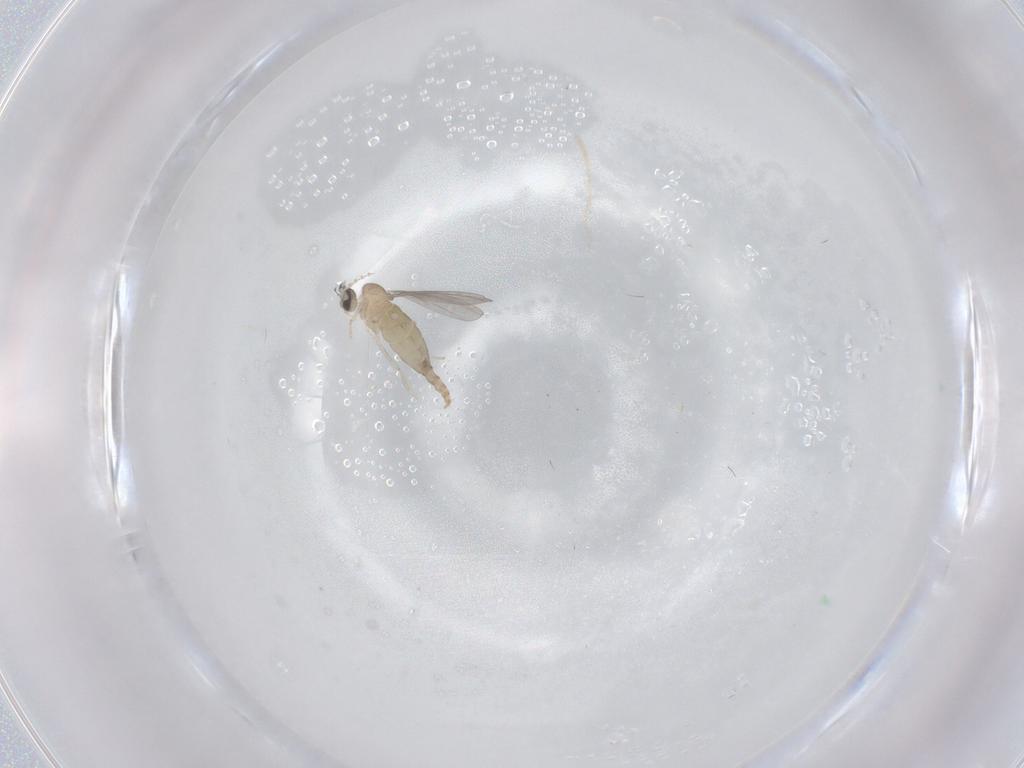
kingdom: Animalia
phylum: Arthropoda
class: Insecta
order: Diptera
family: Cecidomyiidae
